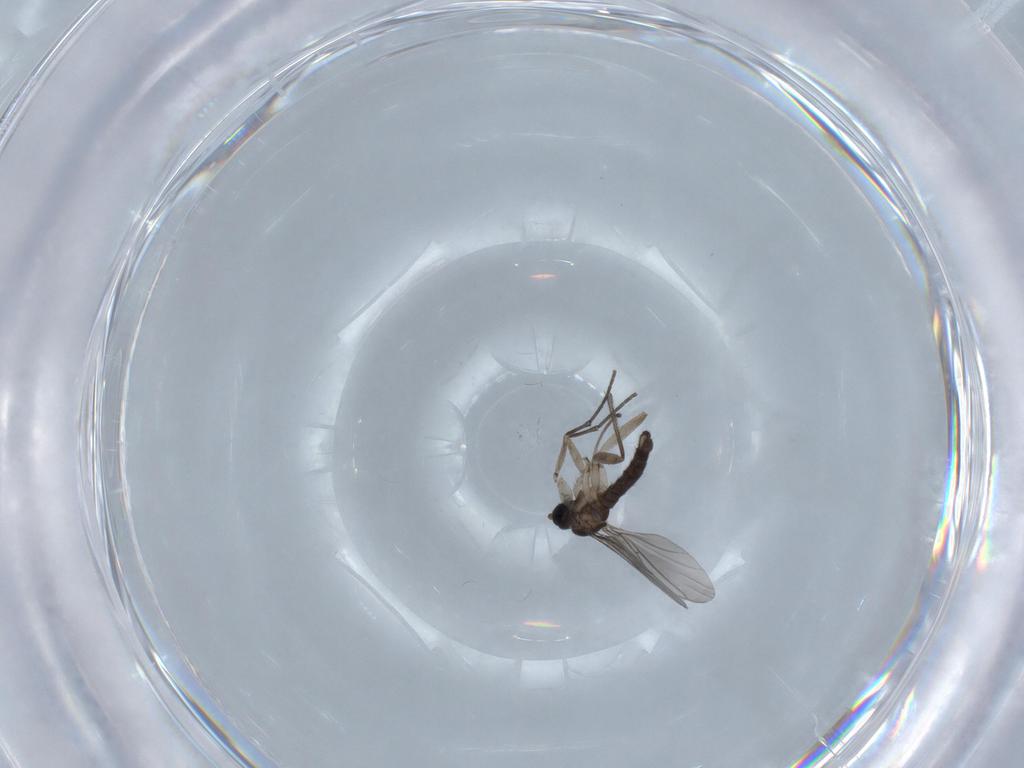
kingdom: Animalia
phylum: Arthropoda
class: Insecta
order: Diptera
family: Sciaridae
